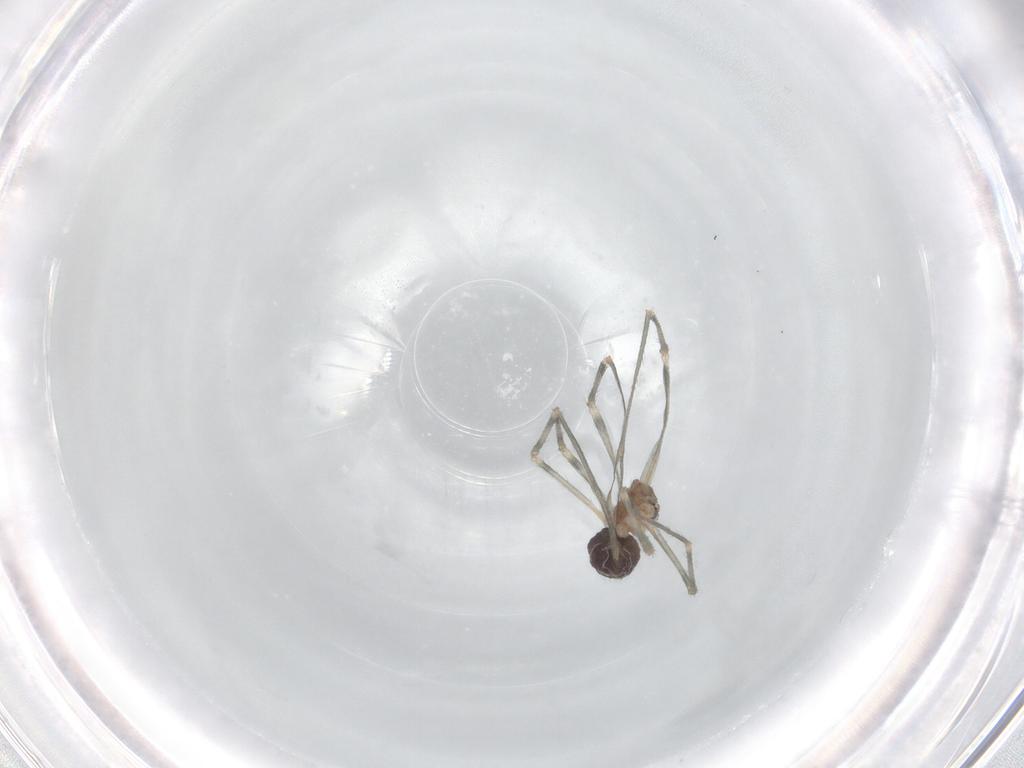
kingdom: Animalia
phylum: Arthropoda
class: Arachnida
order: Araneae
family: Pholcidae
